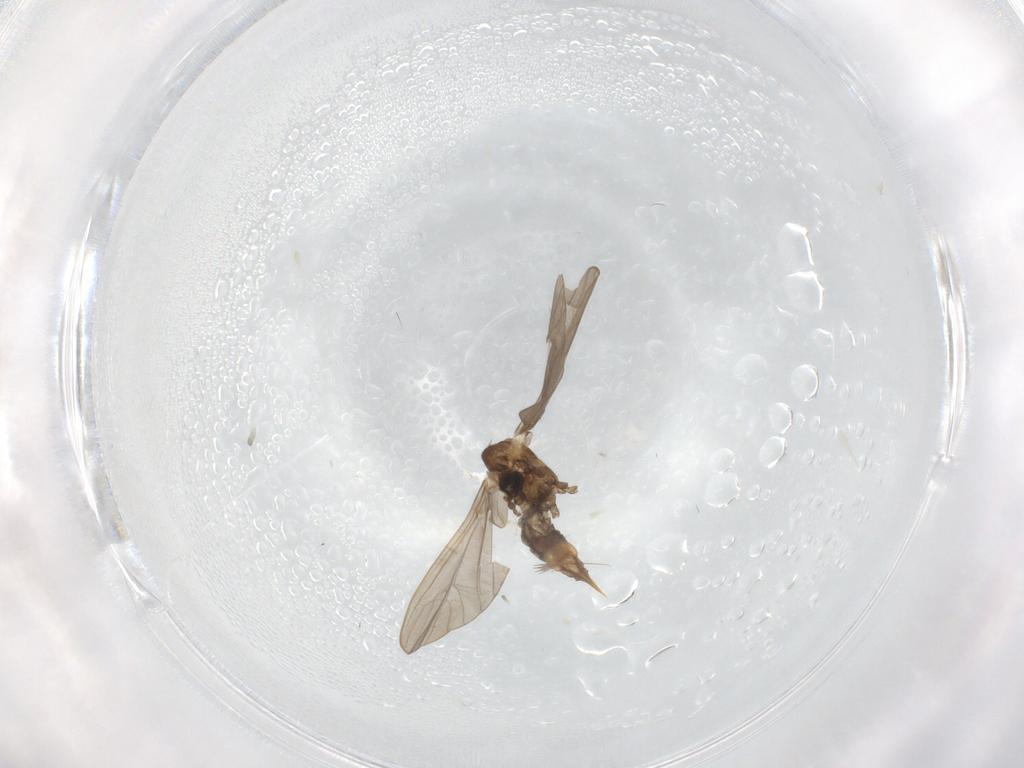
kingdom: Animalia
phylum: Arthropoda
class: Insecta
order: Diptera
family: Limoniidae
